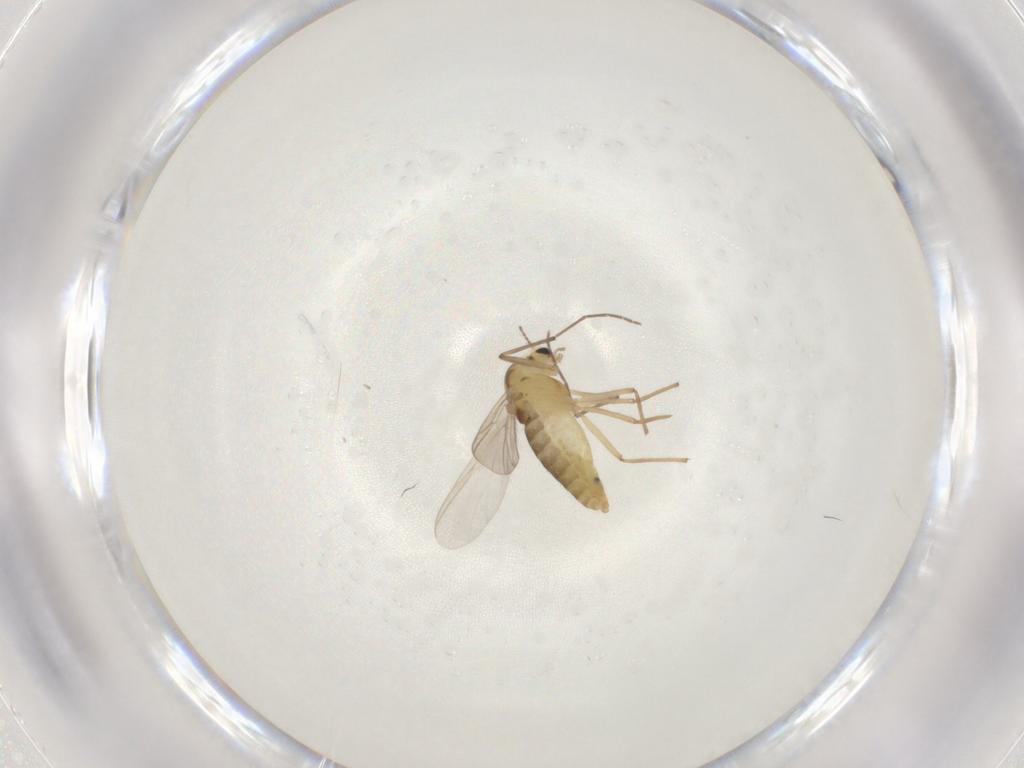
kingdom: Animalia
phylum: Arthropoda
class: Insecta
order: Diptera
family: Chironomidae
